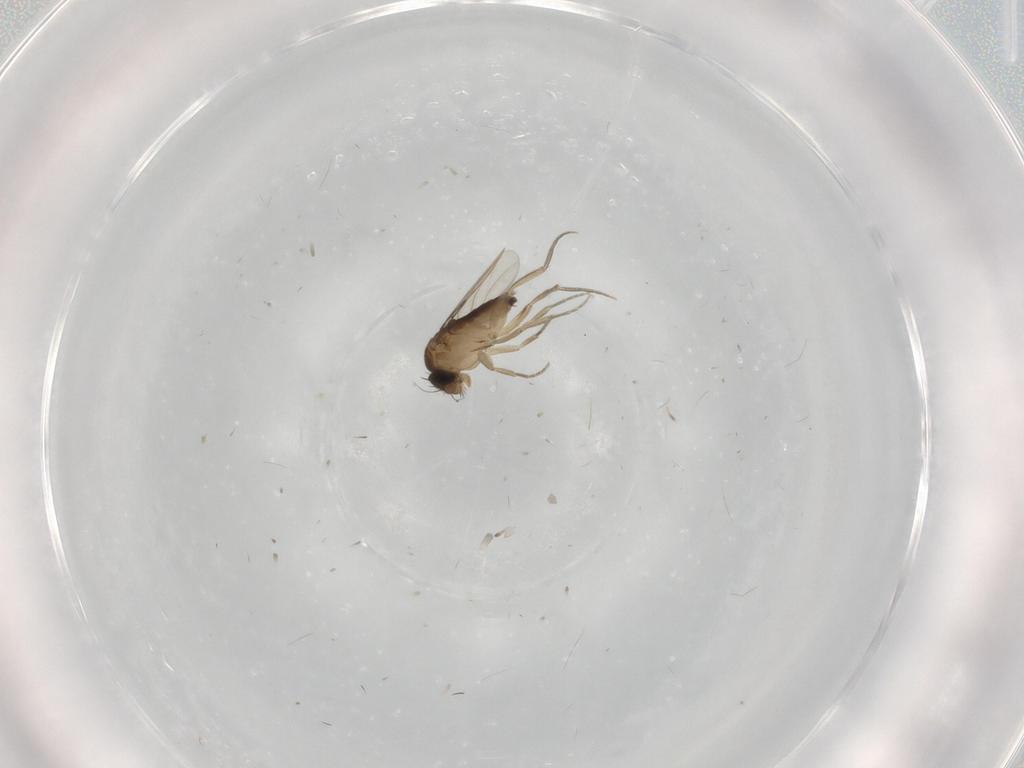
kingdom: Animalia
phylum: Arthropoda
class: Insecta
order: Diptera
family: Phoridae
